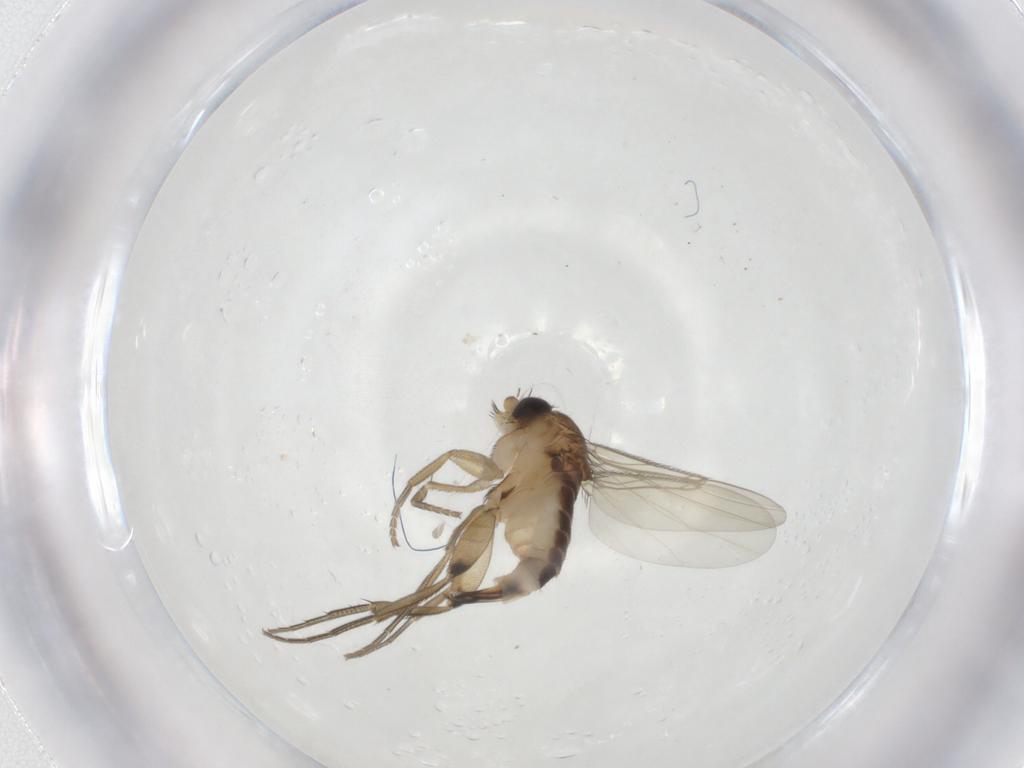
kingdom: Animalia
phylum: Arthropoda
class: Insecta
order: Diptera
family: Phoridae
